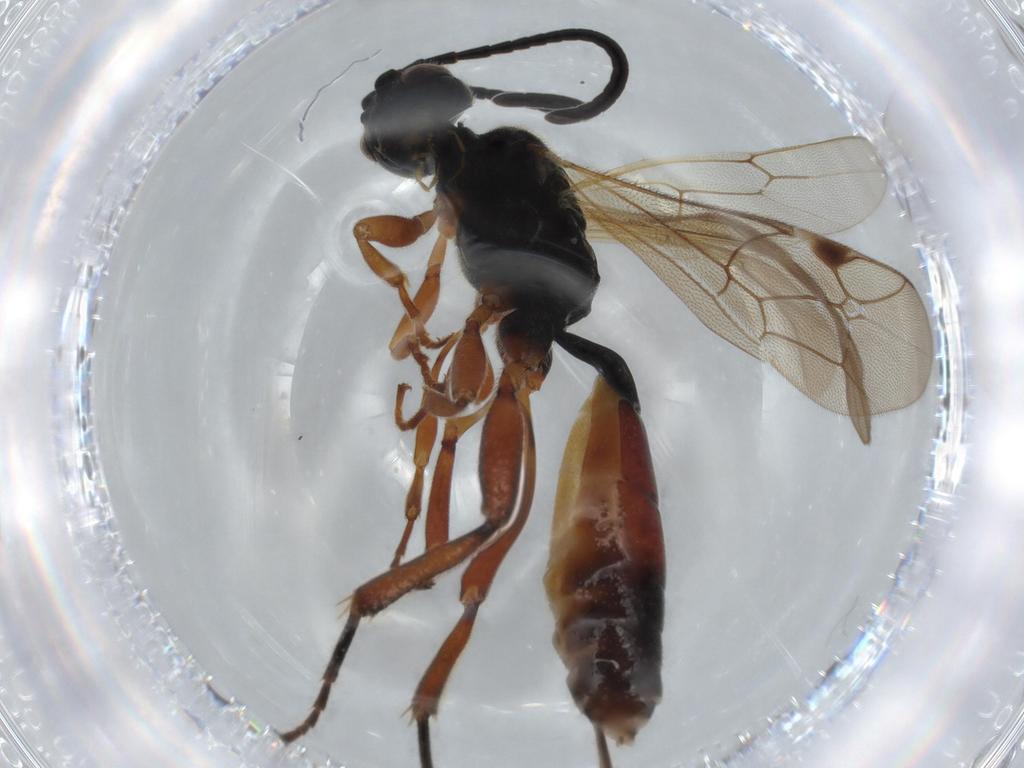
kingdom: Animalia
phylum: Arthropoda
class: Insecta
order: Hymenoptera
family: Ichneumonidae
